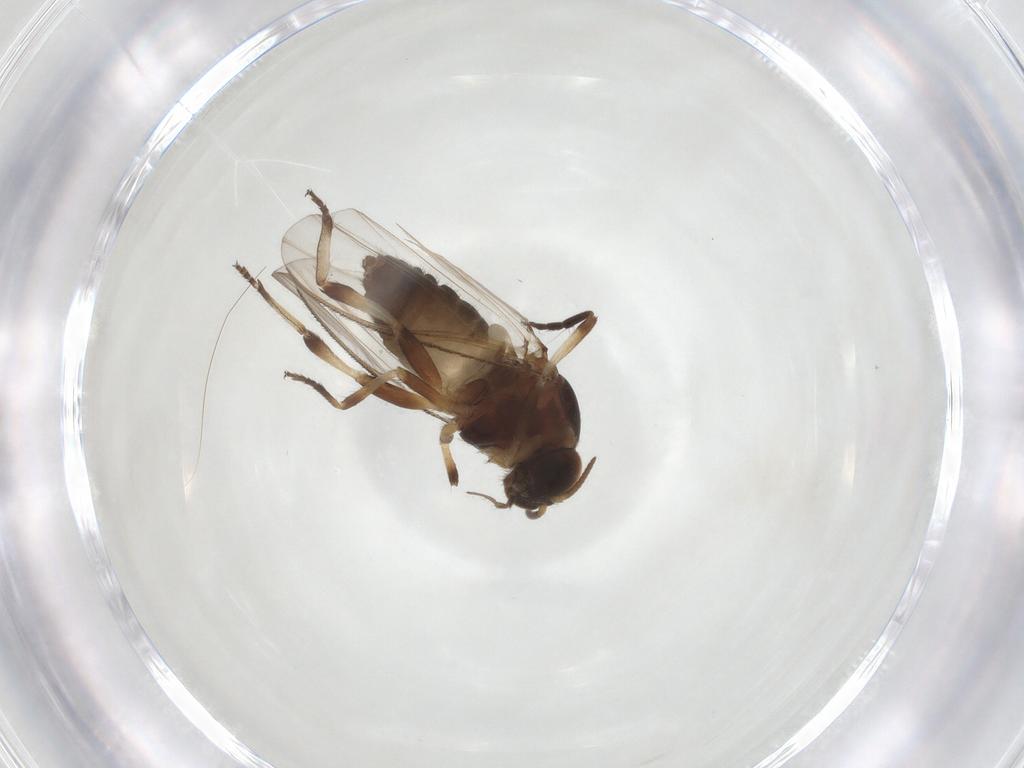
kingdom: Animalia
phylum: Arthropoda
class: Insecta
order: Diptera
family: Simuliidae
